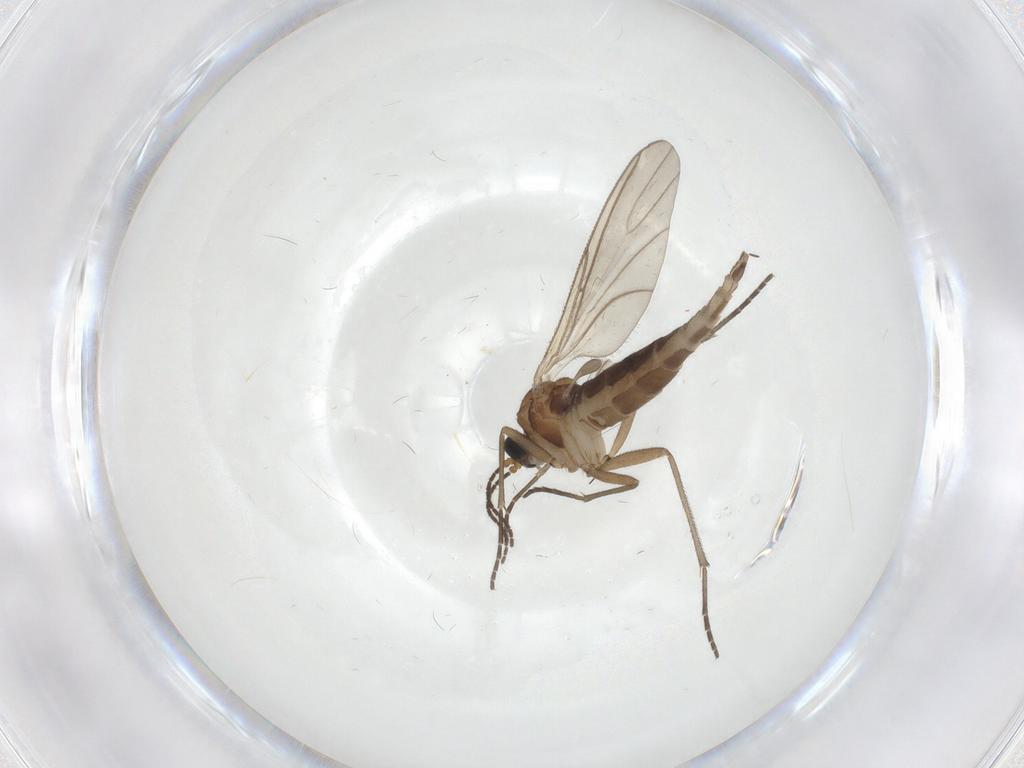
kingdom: Animalia
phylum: Arthropoda
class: Insecta
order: Diptera
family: Sciaridae
